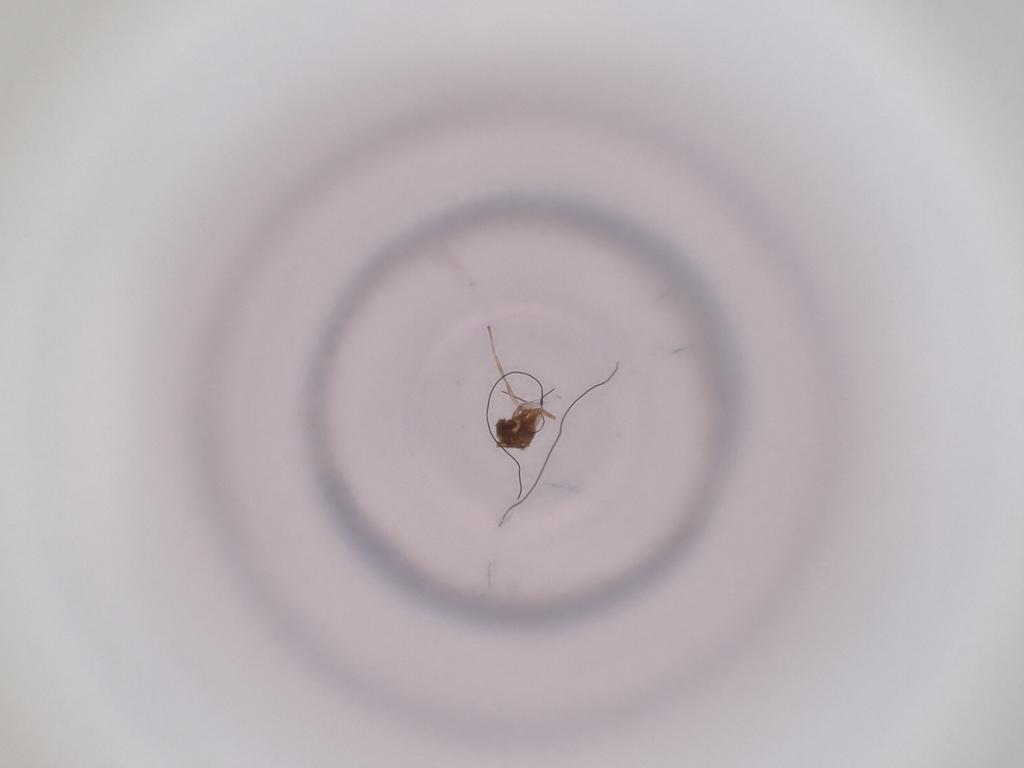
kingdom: Animalia
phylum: Arthropoda
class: Insecta
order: Diptera
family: Cecidomyiidae
